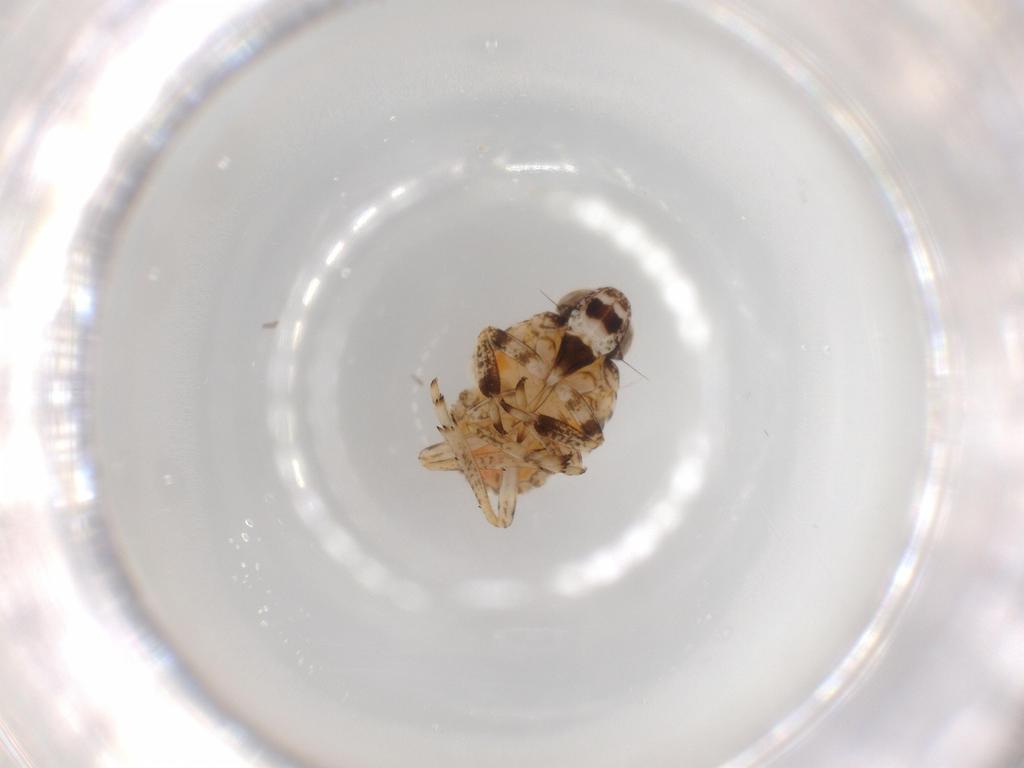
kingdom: Animalia
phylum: Arthropoda
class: Insecta
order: Hemiptera
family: Issidae
